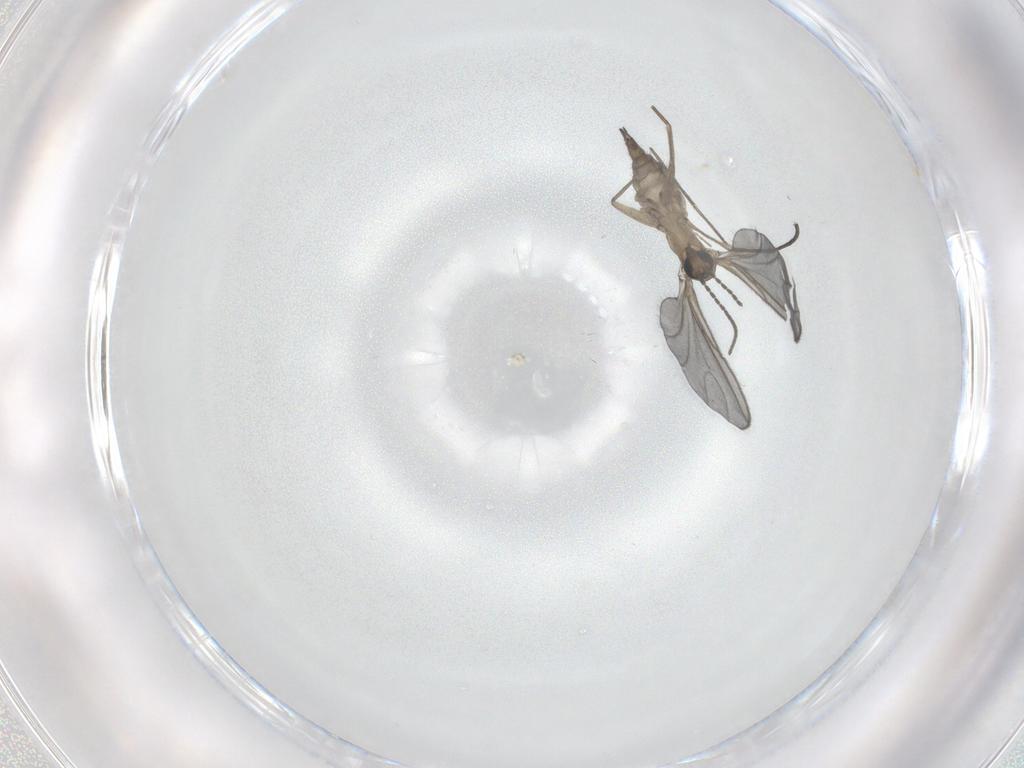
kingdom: Animalia
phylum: Arthropoda
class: Insecta
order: Diptera
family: Sciaridae
